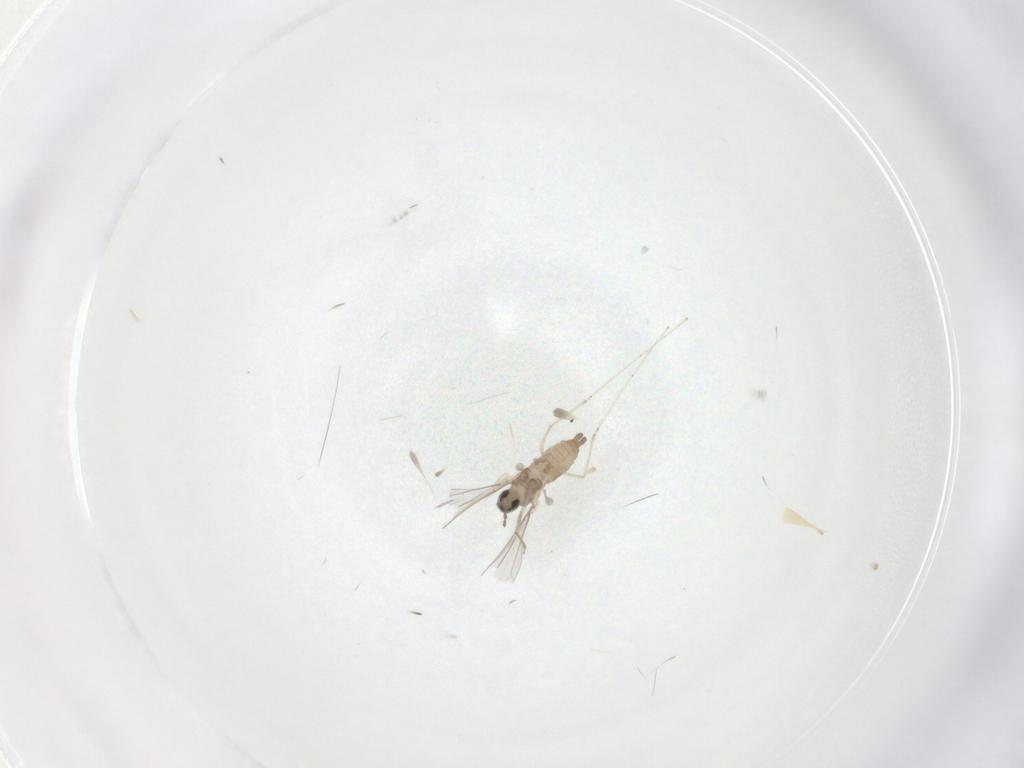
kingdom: Animalia
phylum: Arthropoda
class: Insecta
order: Diptera
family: Cecidomyiidae
